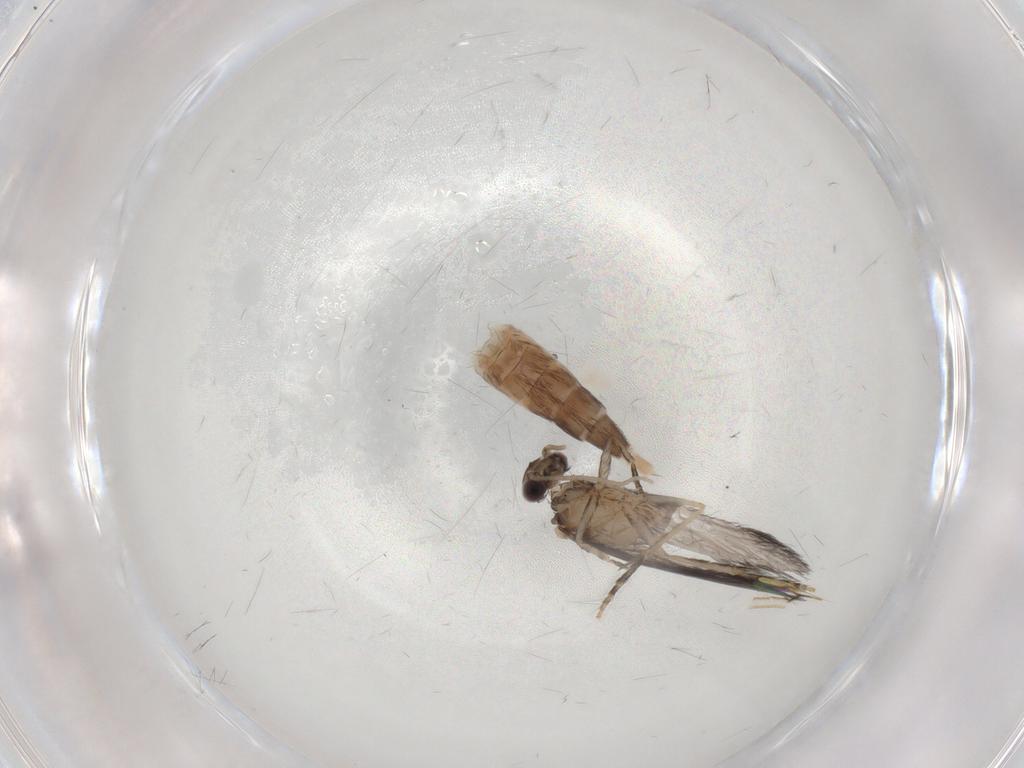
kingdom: Animalia
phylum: Arthropoda
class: Insecta
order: Trichoptera
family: Hydroptilidae
